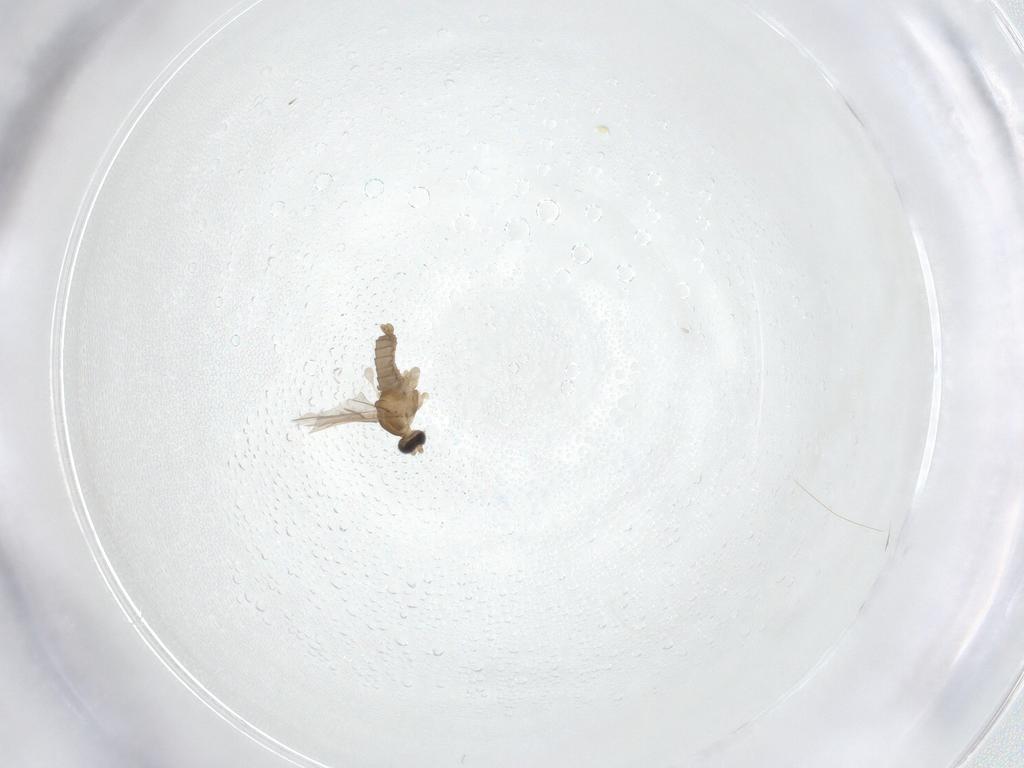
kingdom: Animalia
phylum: Arthropoda
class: Insecta
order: Diptera
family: Cecidomyiidae
